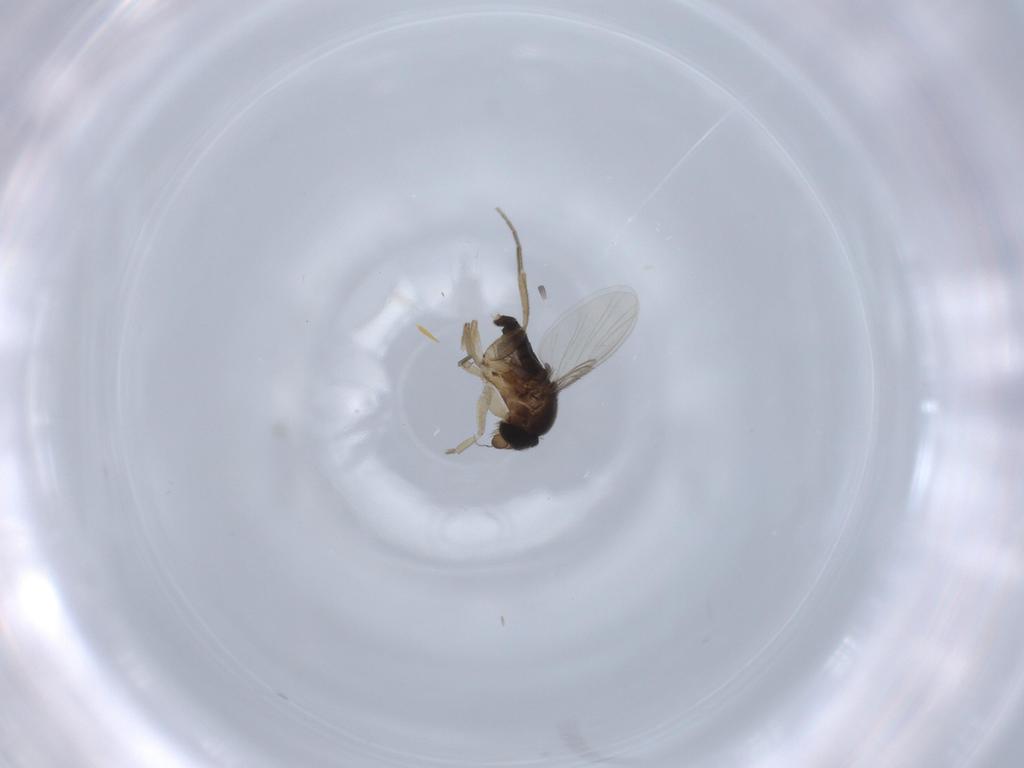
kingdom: Animalia
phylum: Arthropoda
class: Insecta
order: Diptera
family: Phoridae
